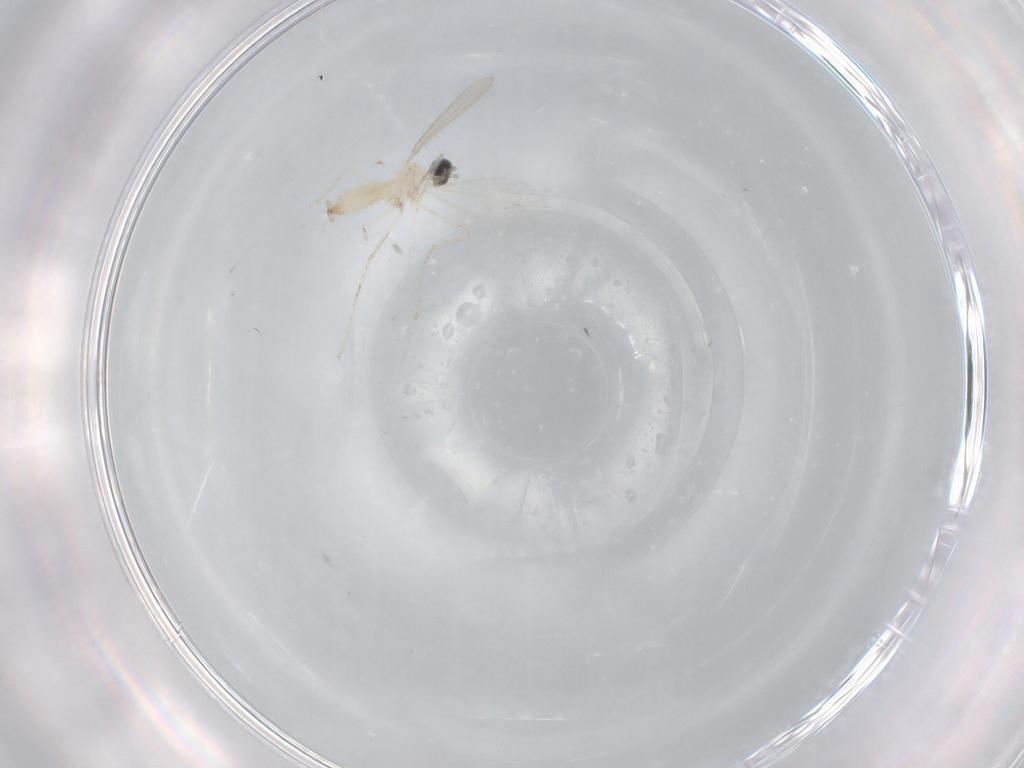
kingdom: Animalia
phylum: Arthropoda
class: Insecta
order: Diptera
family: Cecidomyiidae
